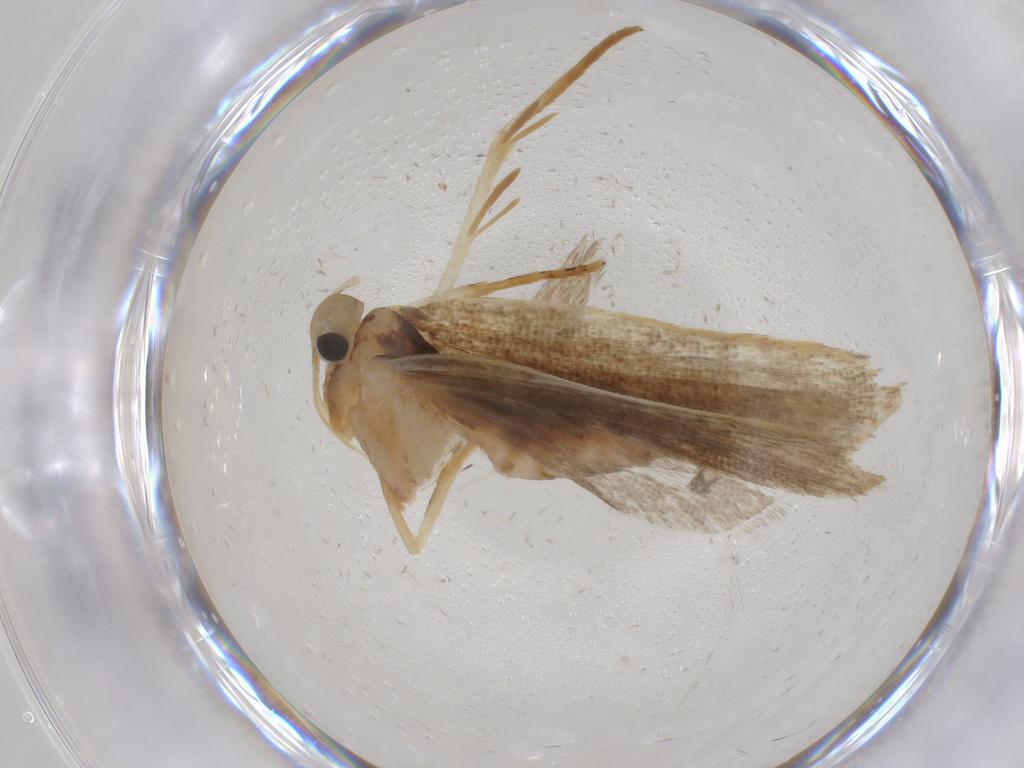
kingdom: Animalia
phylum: Arthropoda
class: Insecta
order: Lepidoptera
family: Gelechiidae
